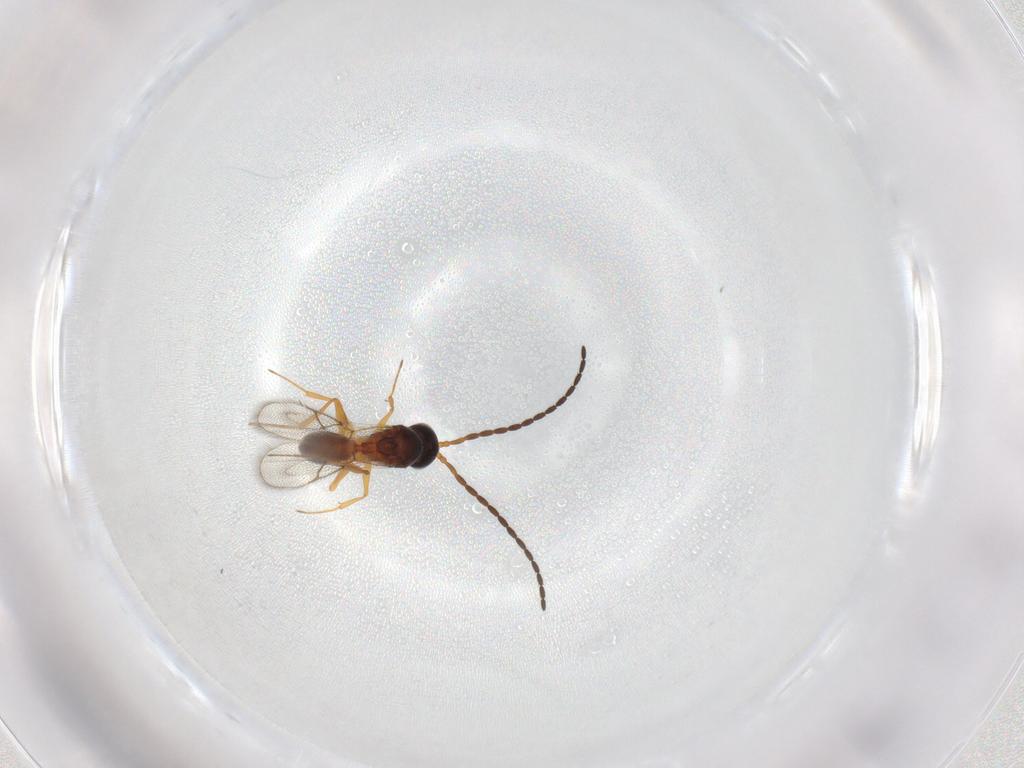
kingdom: Animalia
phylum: Arthropoda
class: Insecta
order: Hymenoptera
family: Figitidae
